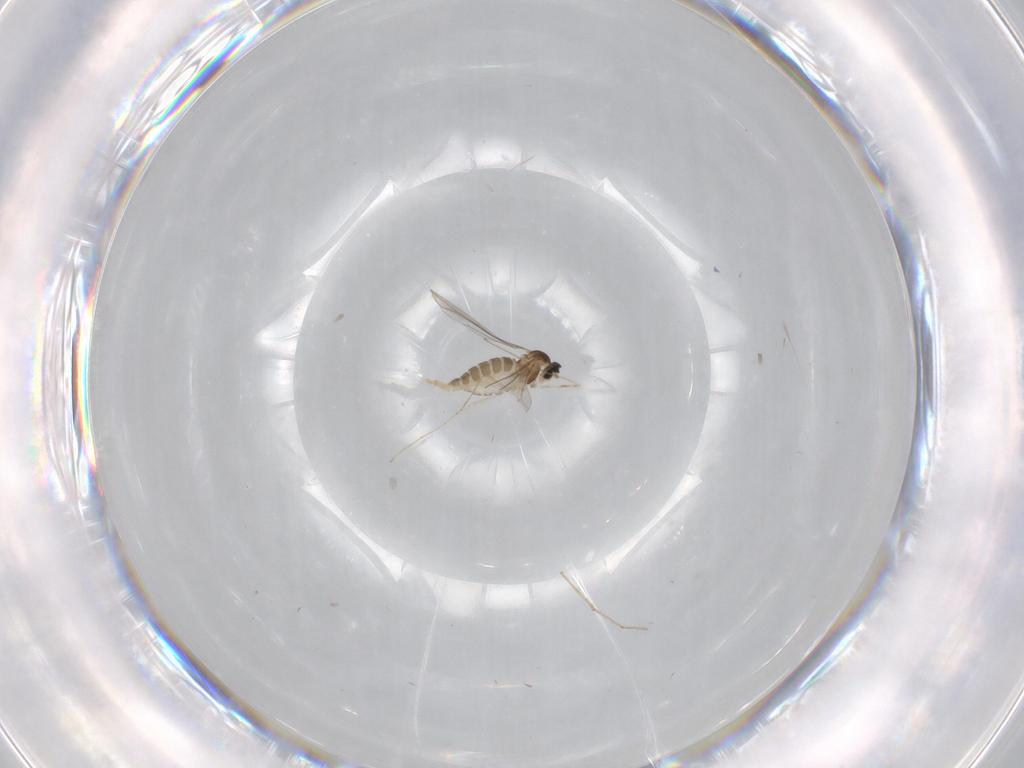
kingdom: Animalia
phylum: Arthropoda
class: Insecta
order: Diptera
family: Cecidomyiidae
